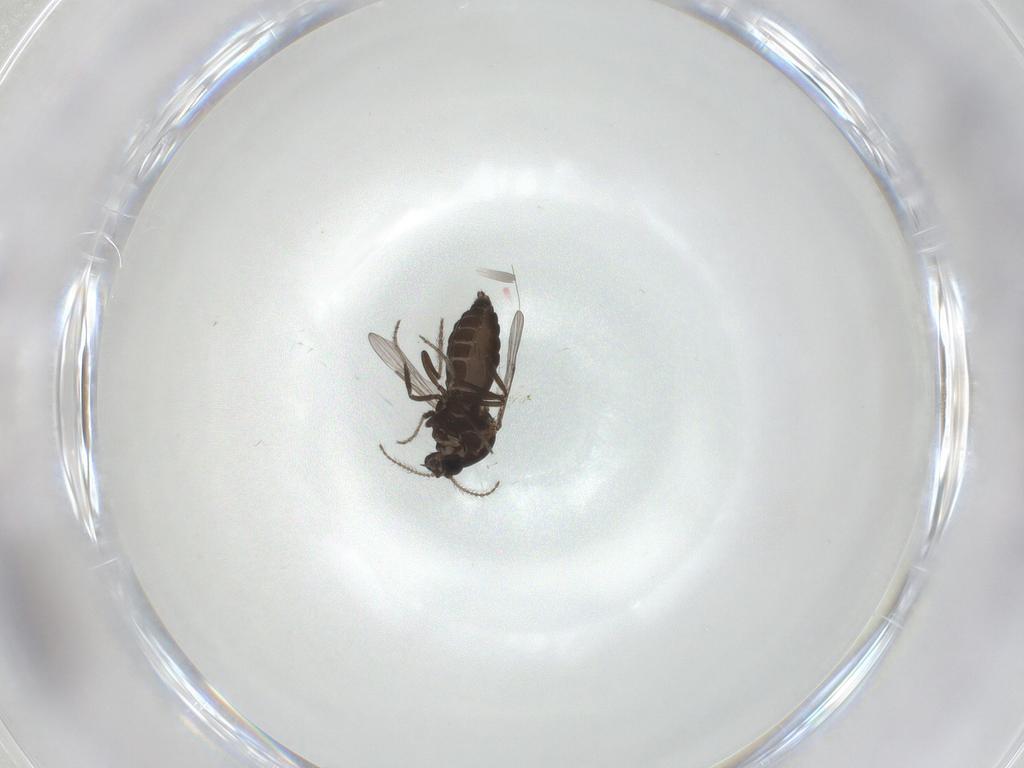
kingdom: Animalia
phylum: Arthropoda
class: Insecta
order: Diptera
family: Ceratopogonidae
